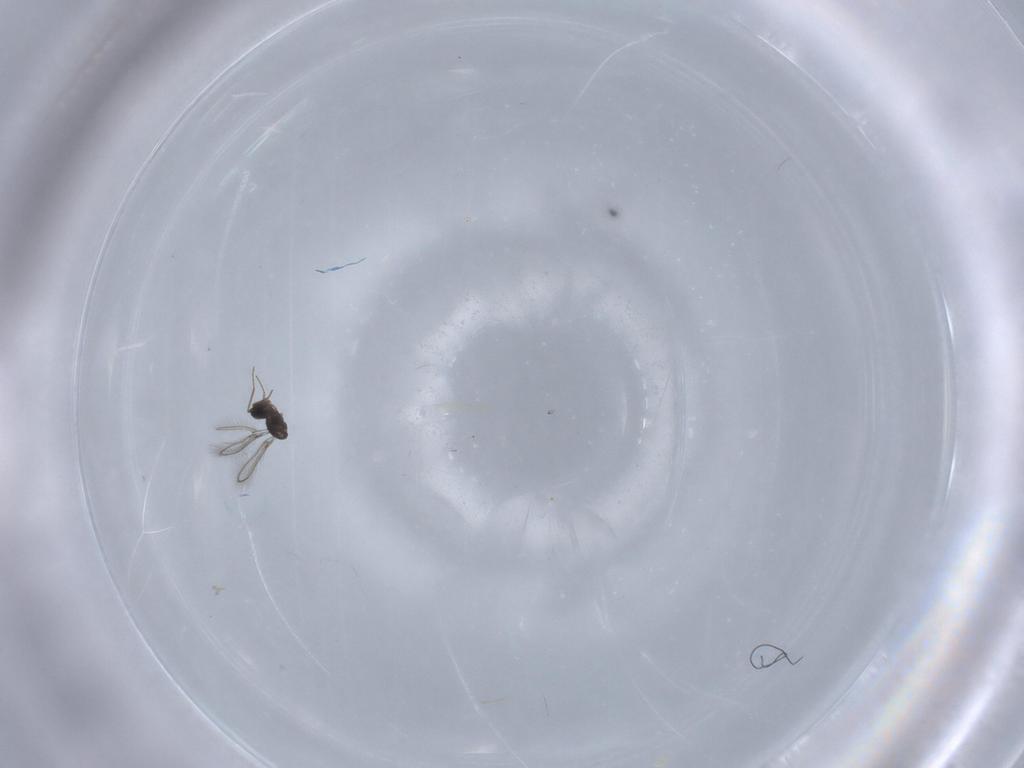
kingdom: Animalia
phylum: Arthropoda
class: Insecta
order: Hymenoptera
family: Mymaridae
